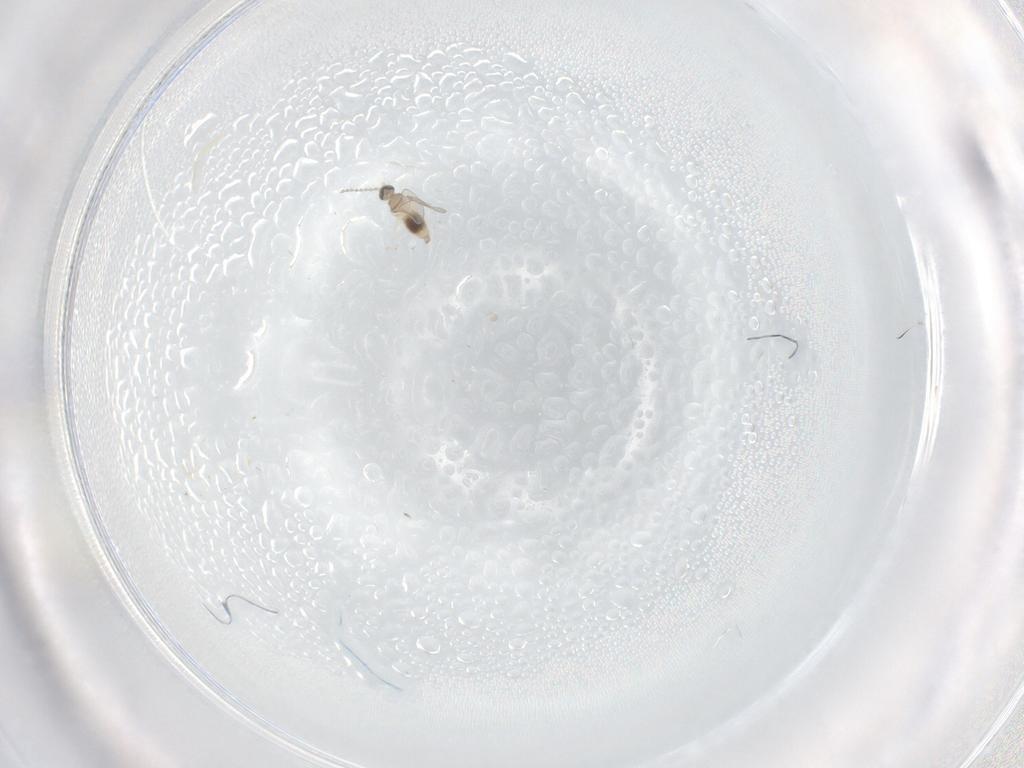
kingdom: Animalia
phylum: Arthropoda
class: Insecta
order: Diptera
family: Cecidomyiidae
